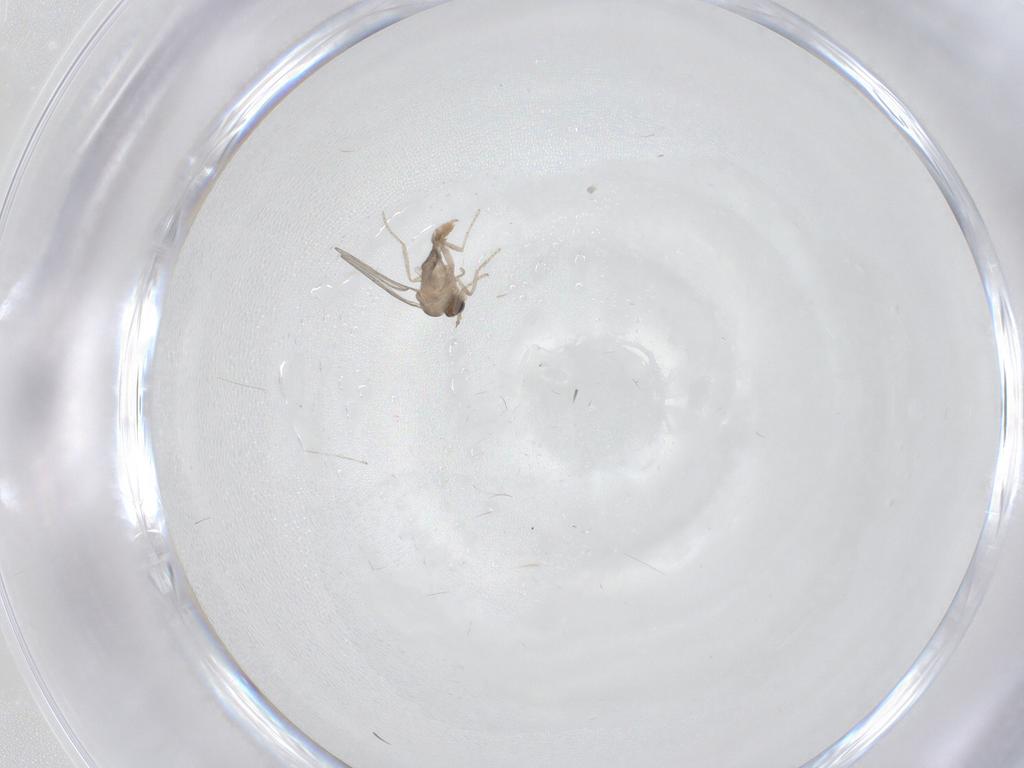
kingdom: Animalia
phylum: Arthropoda
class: Insecta
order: Diptera
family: Cecidomyiidae
